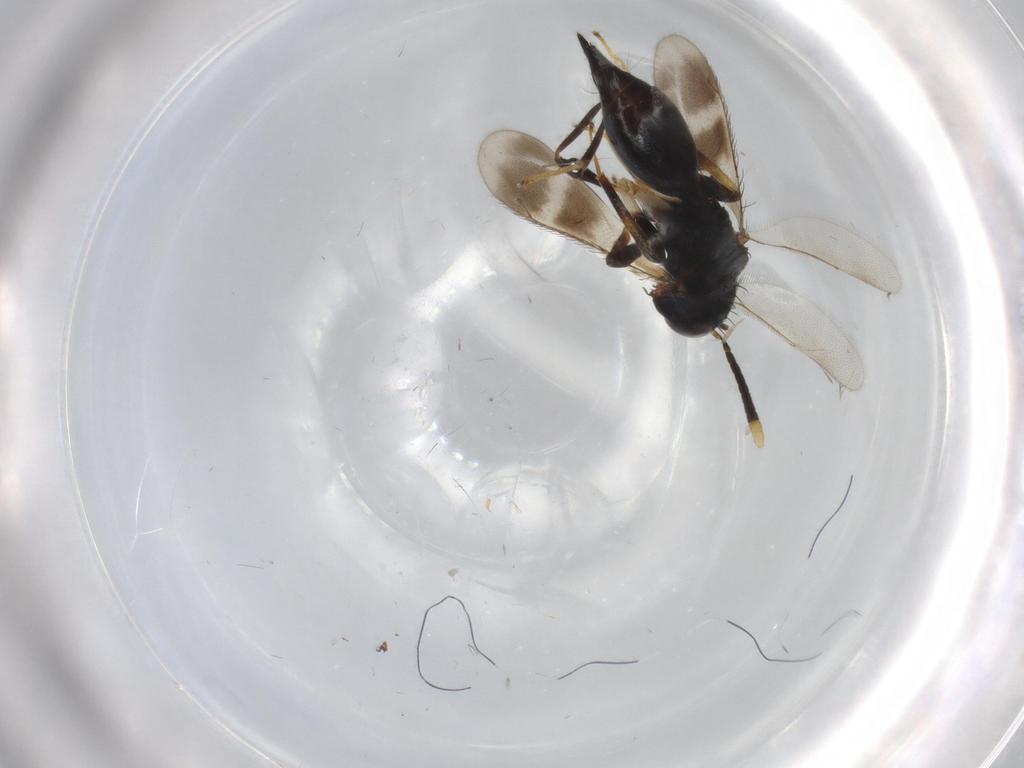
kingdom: Animalia
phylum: Arthropoda
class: Insecta
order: Hymenoptera
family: Diparidae
